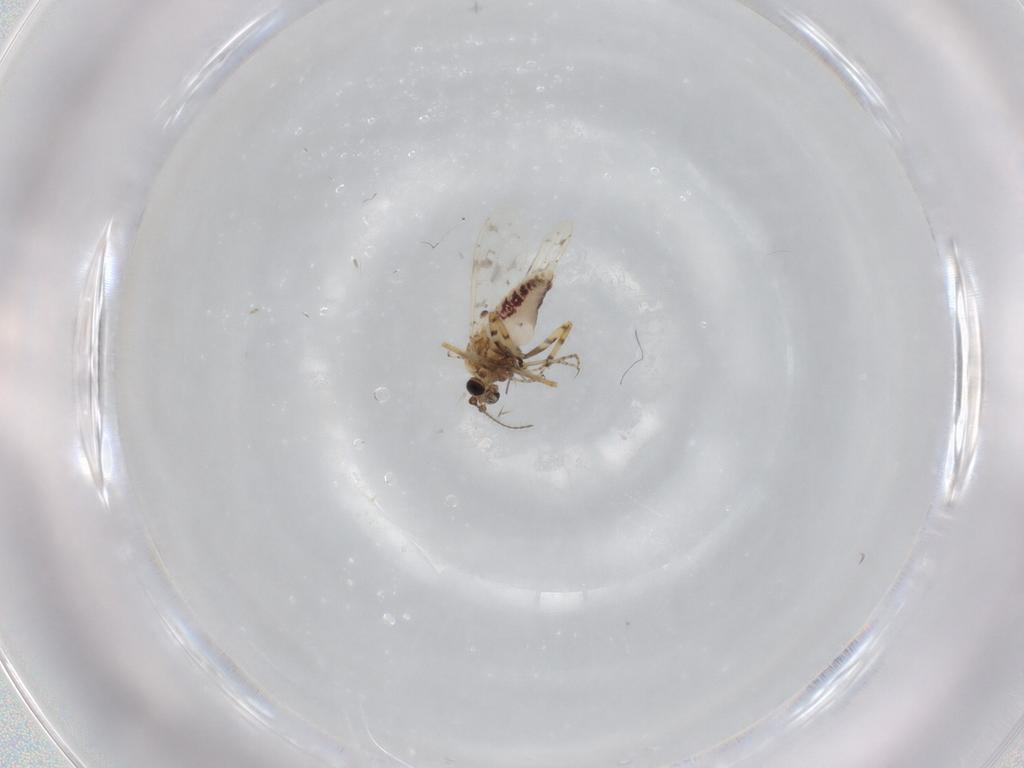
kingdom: Animalia
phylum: Arthropoda
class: Insecta
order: Diptera
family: Ceratopogonidae
